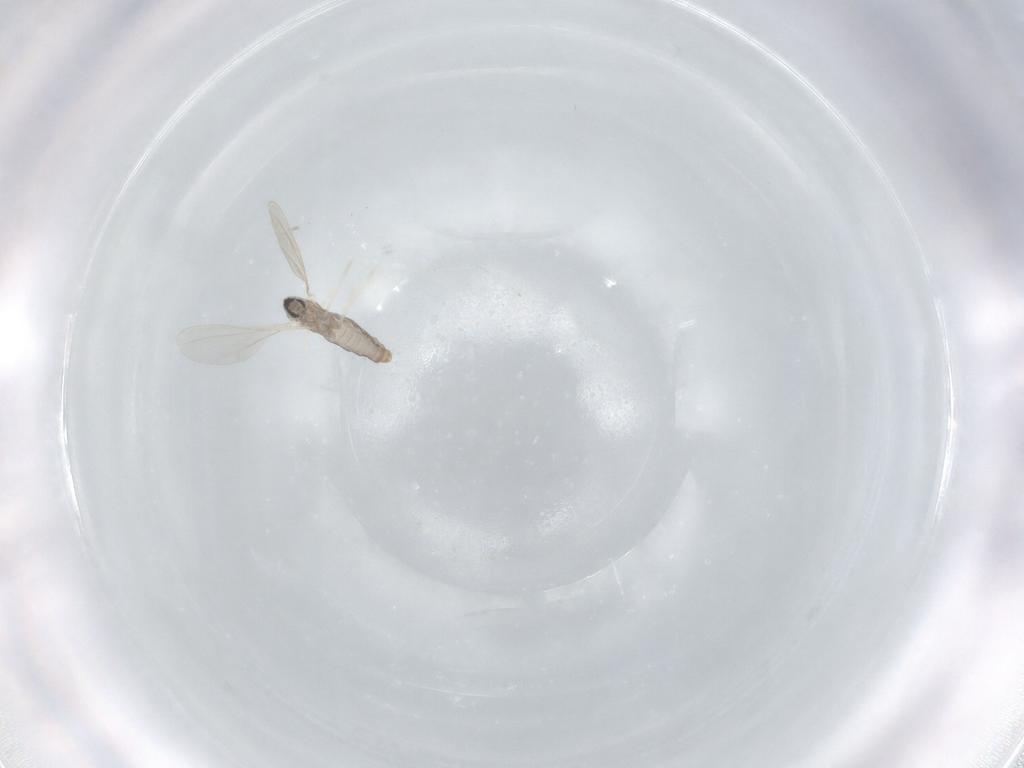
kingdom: Animalia
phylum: Arthropoda
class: Insecta
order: Diptera
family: Cecidomyiidae
